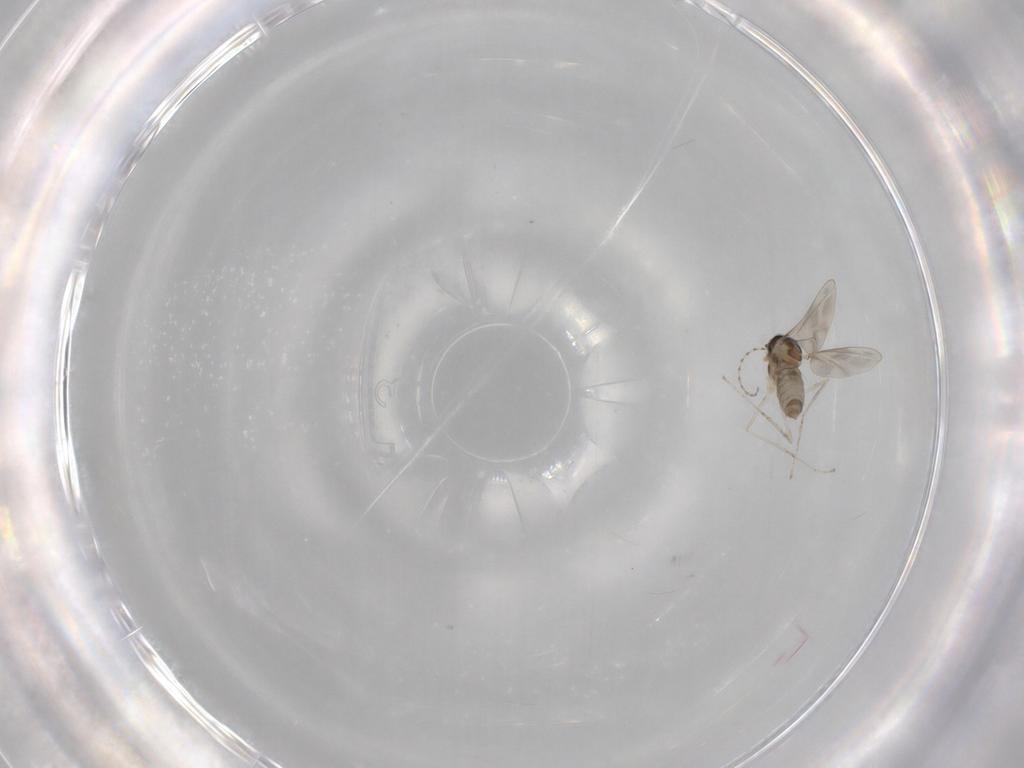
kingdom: Animalia
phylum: Arthropoda
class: Insecta
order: Diptera
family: Cecidomyiidae
